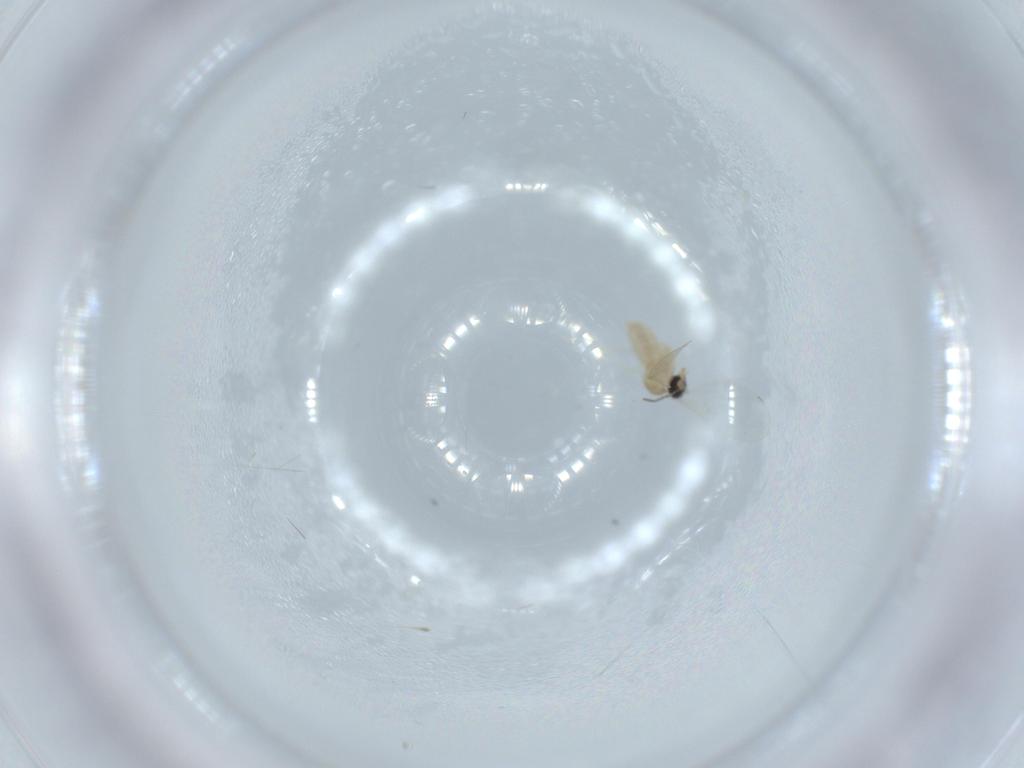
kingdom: Animalia
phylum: Arthropoda
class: Insecta
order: Diptera
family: Cecidomyiidae
